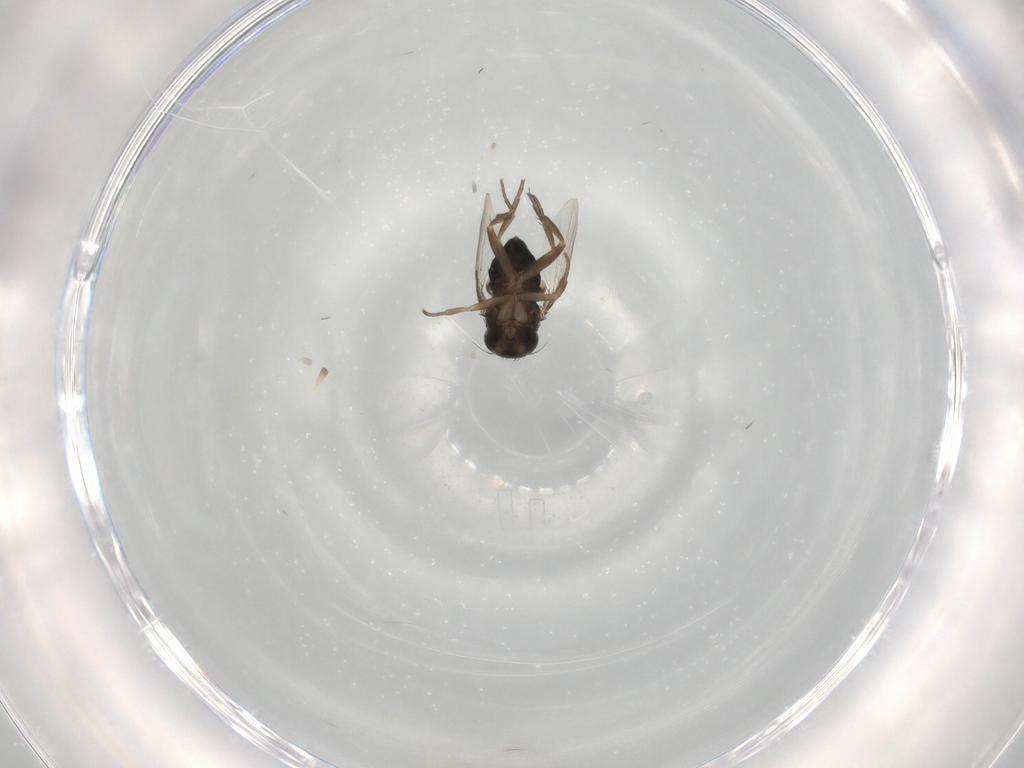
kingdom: Animalia
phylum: Arthropoda
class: Insecta
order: Diptera
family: Phoridae
